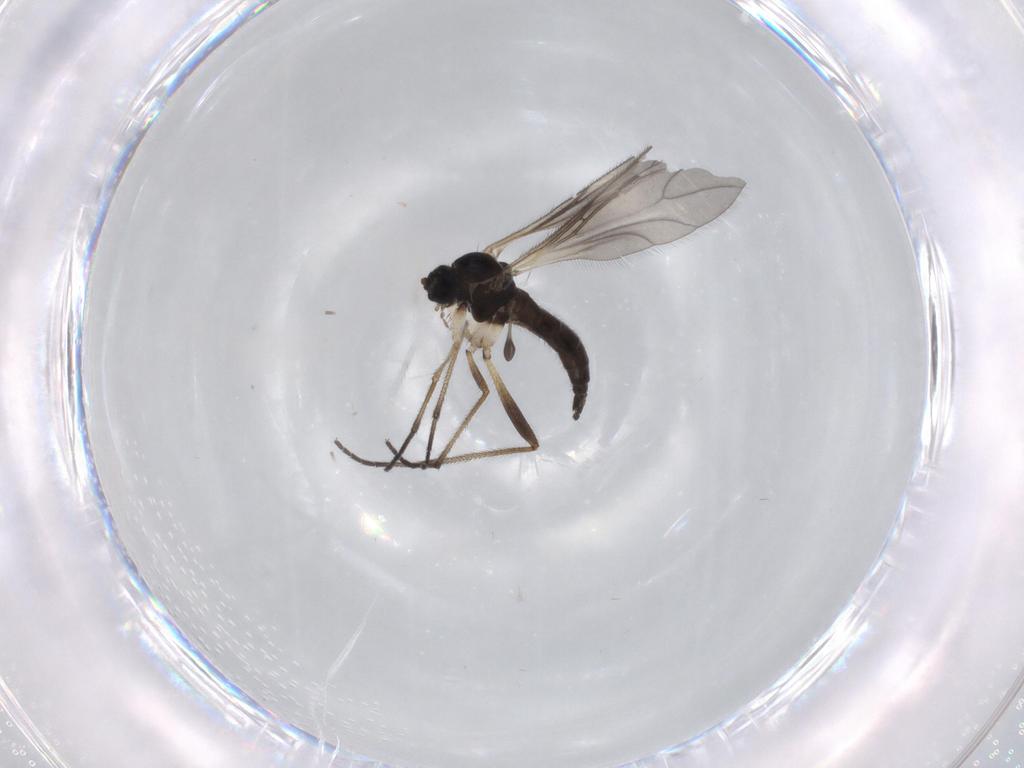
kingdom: Animalia
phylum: Arthropoda
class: Insecta
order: Diptera
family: Sciaridae
